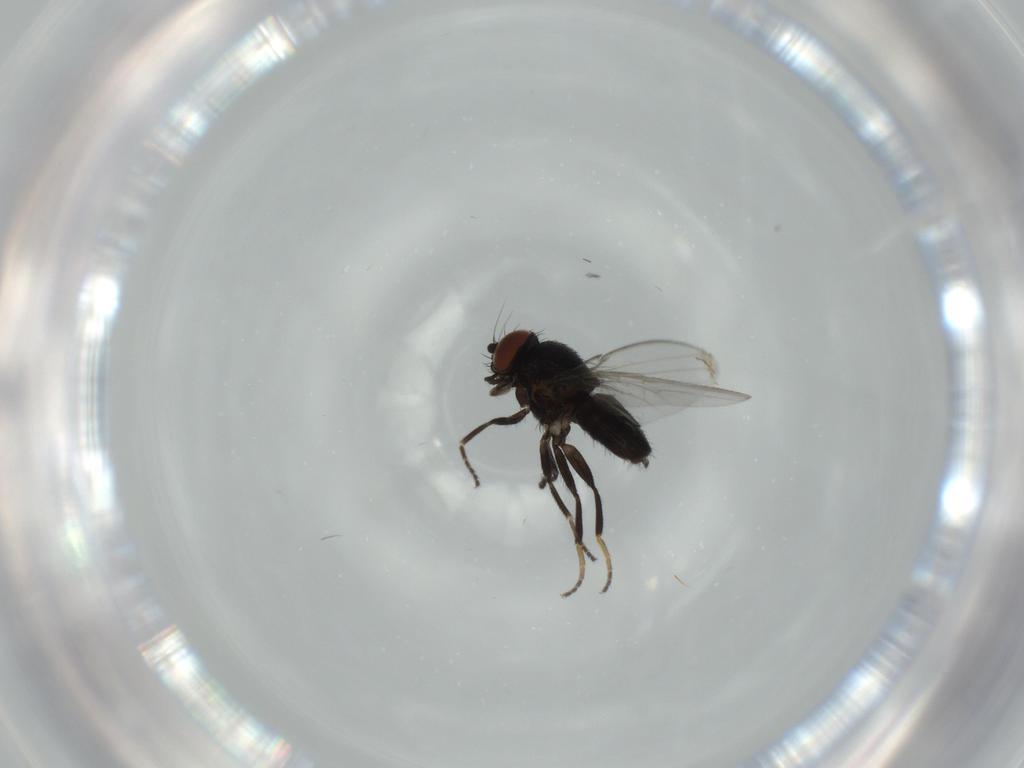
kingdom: Animalia
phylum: Arthropoda
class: Insecta
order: Diptera
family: Milichiidae
